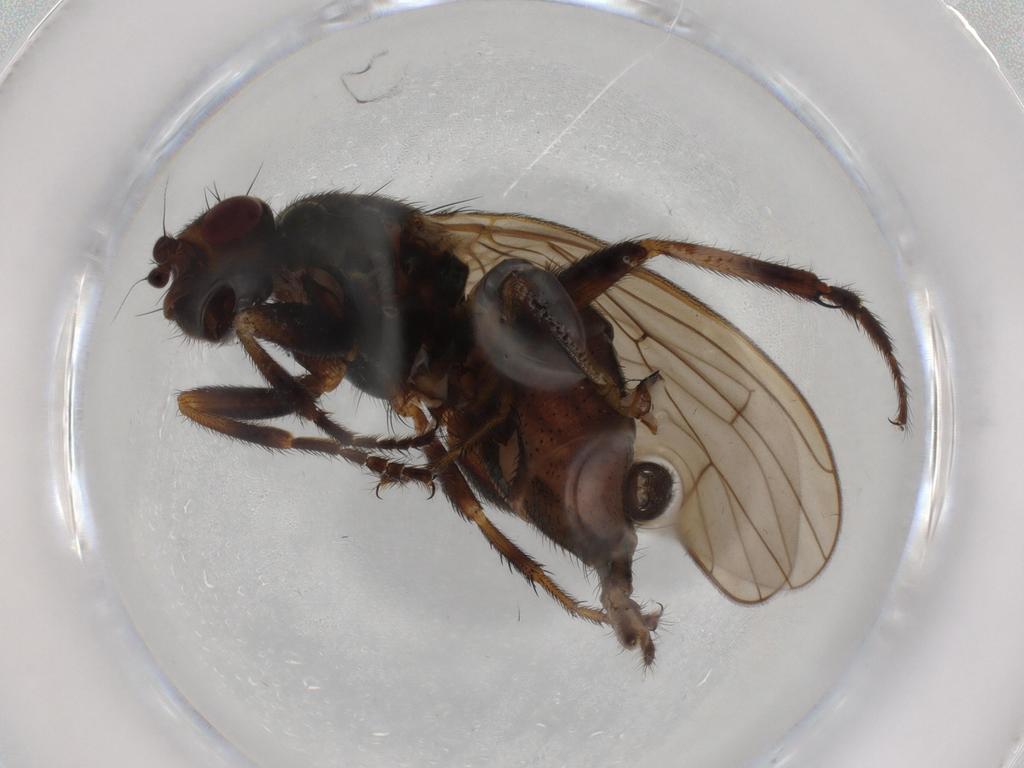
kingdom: Animalia
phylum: Arthropoda
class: Insecta
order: Diptera
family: Sphaeroceridae
